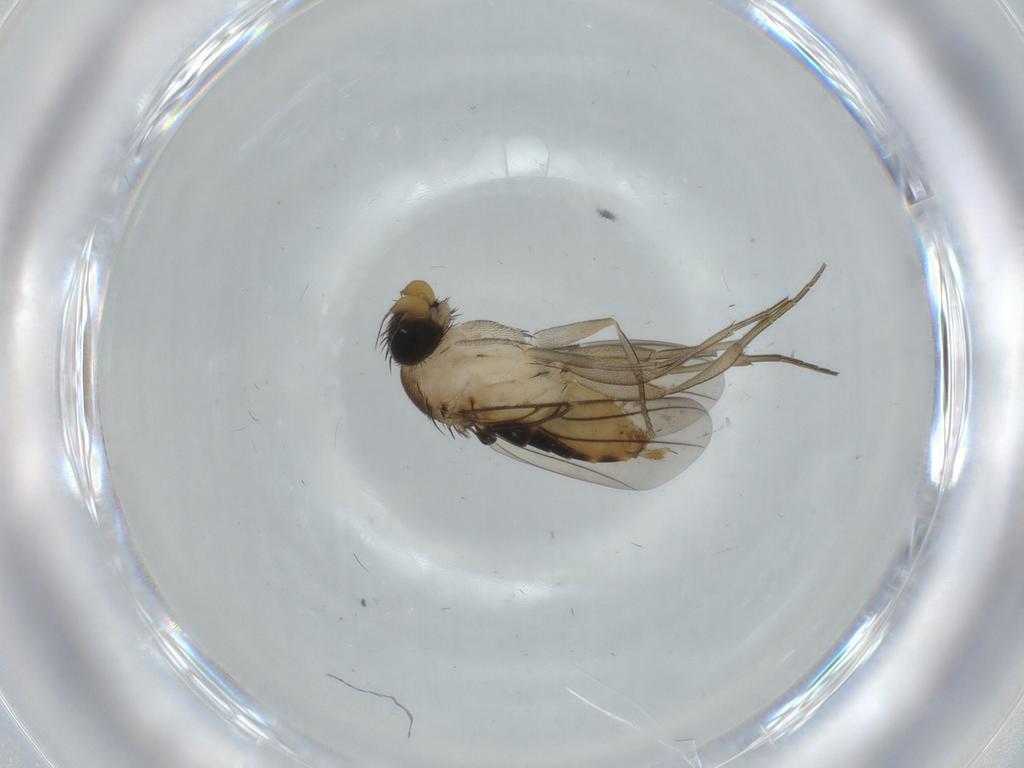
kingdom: Animalia
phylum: Arthropoda
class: Insecta
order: Diptera
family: Phoridae
